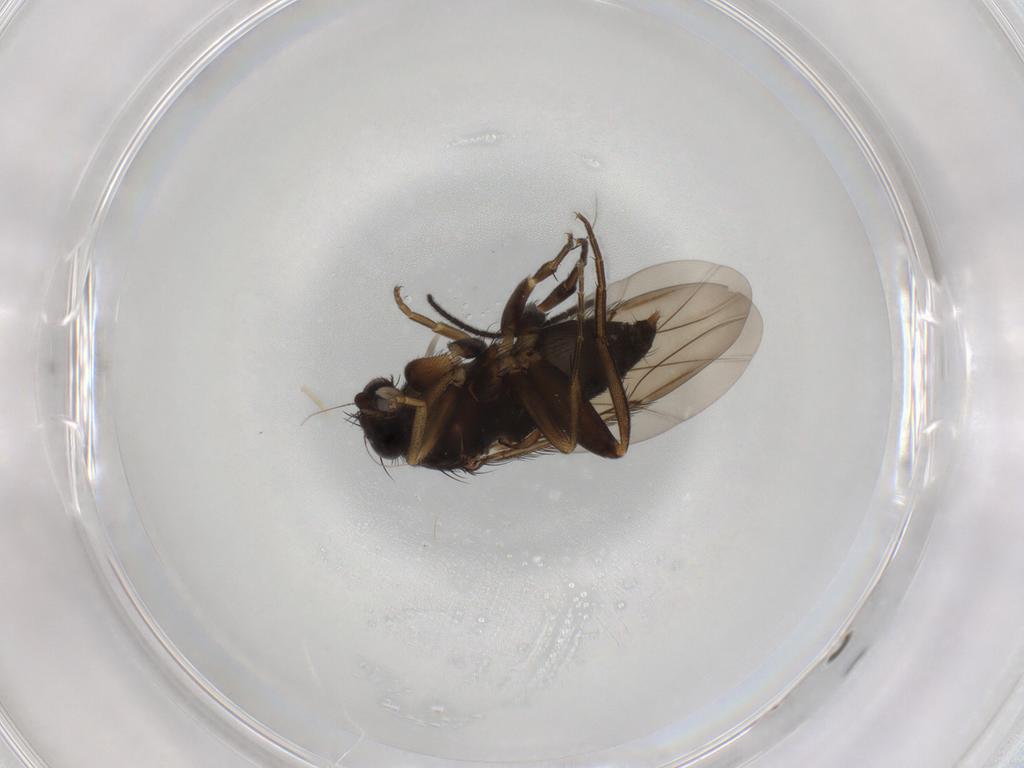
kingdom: Animalia
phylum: Arthropoda
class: Insecta
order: Diptera
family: Phoridae
